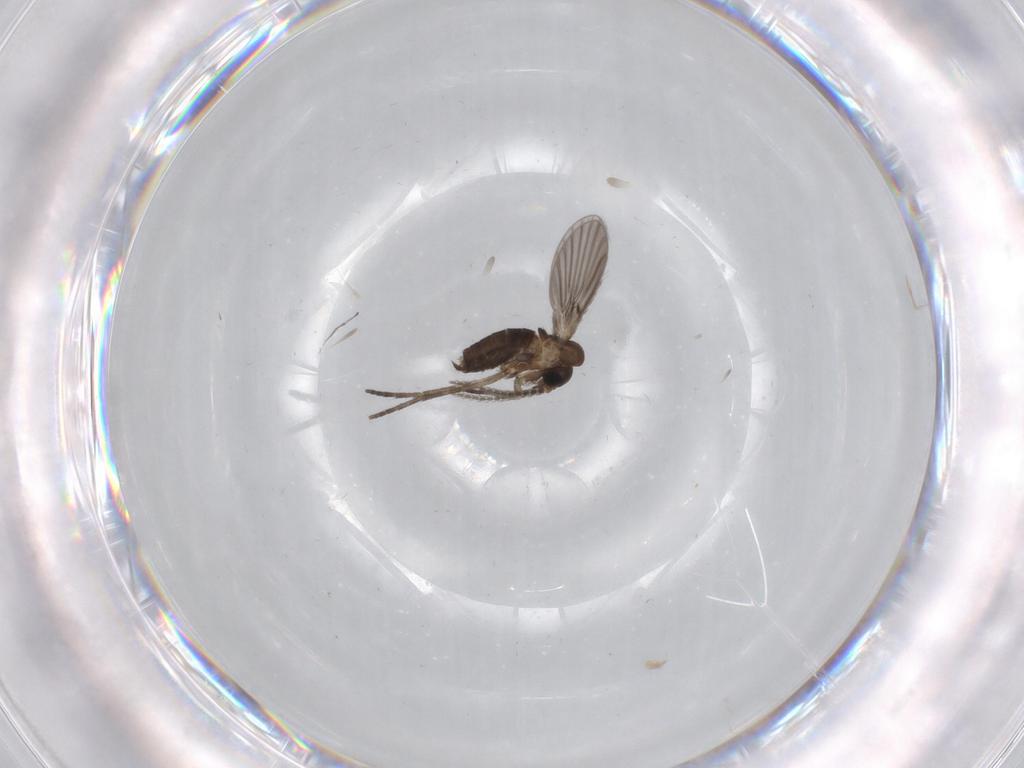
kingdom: Animalia
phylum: Arthropoda
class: Insecta
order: Diptera
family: Psychodidae
